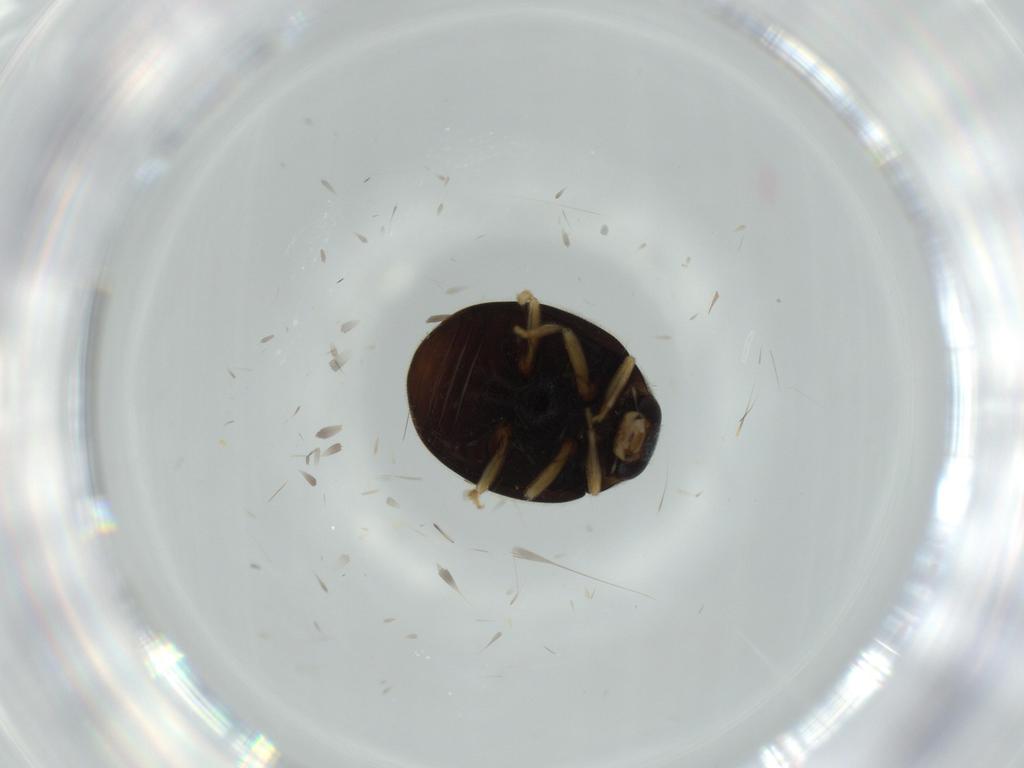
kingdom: Animalia
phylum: Arthropoda
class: Insecta
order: Coleoptera
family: Coccinellidae
